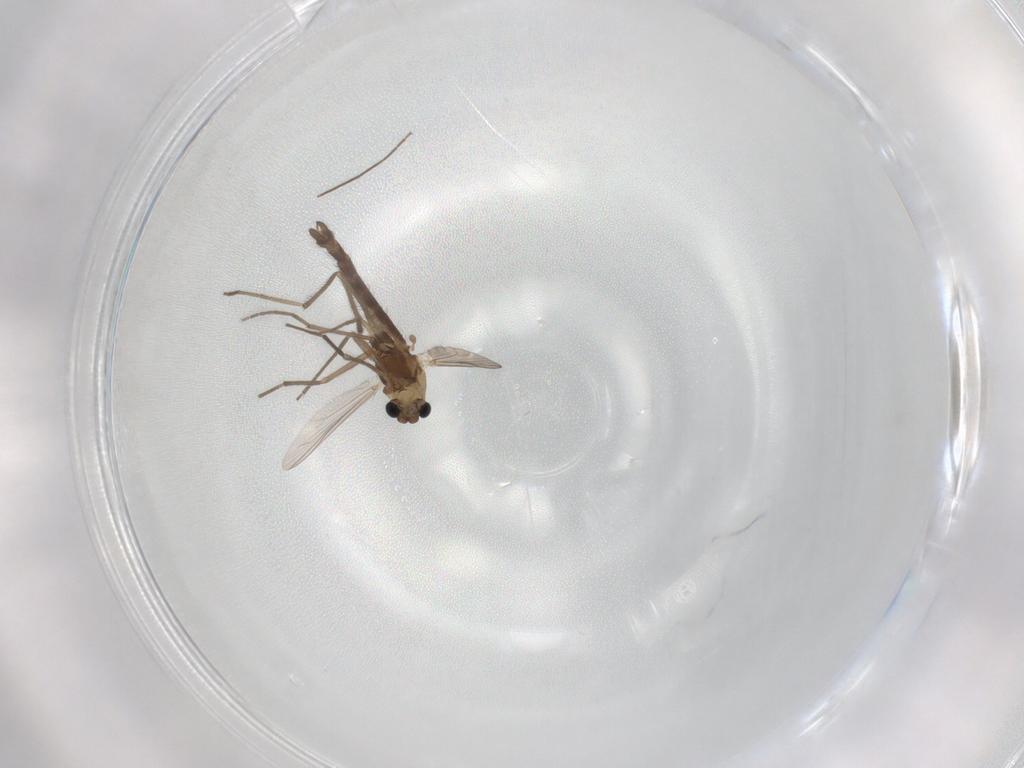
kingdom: Animalia
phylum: Arthropoda
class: Insecta
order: Diptera
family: Chironomidae
